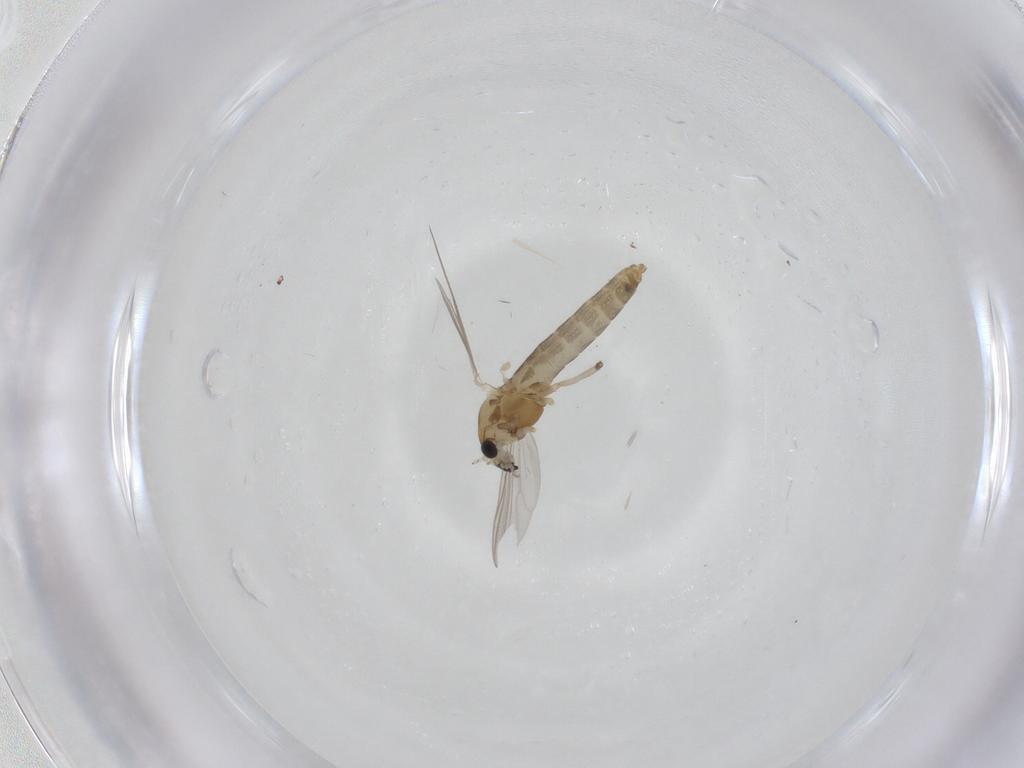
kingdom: Animalia
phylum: Arthropoda
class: Insecta
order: Diptera
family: Chironomidae
